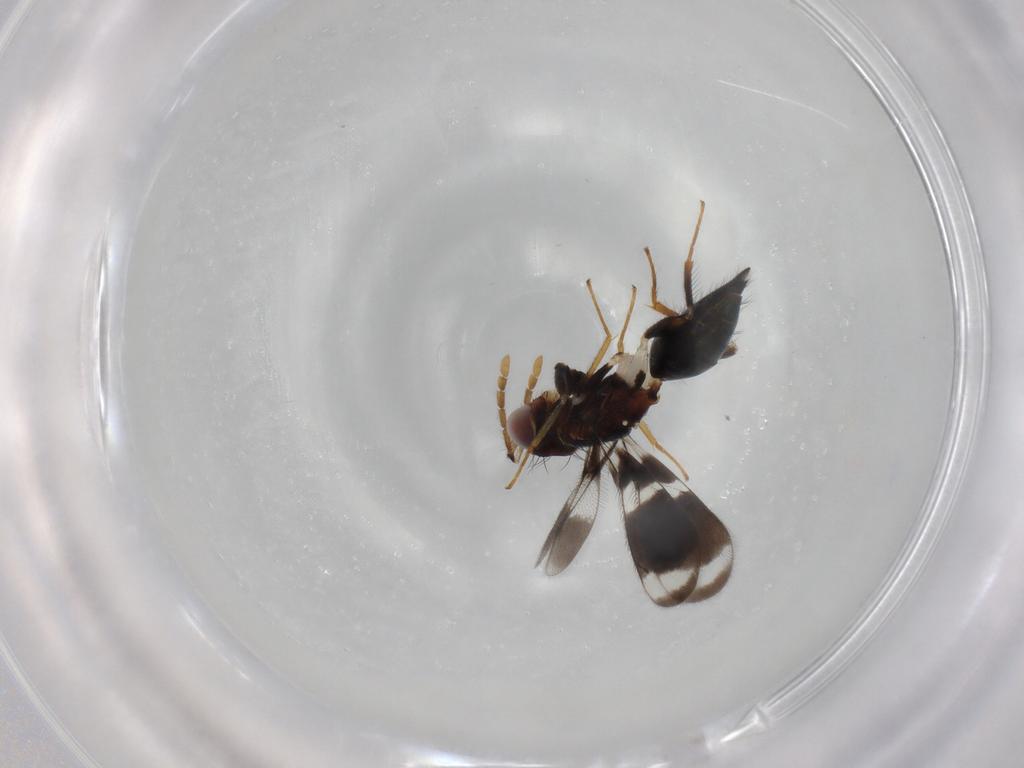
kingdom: Animalia
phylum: Arthropoda
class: Insecta
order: Hymenoptera
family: Eulophidae
